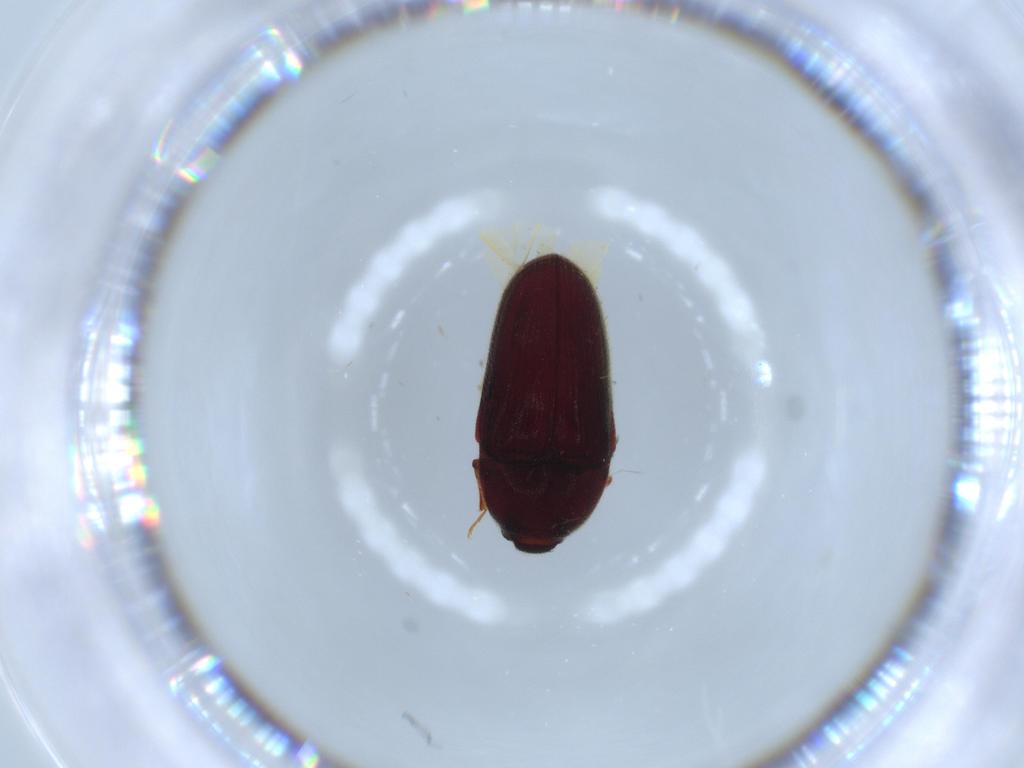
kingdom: Animalia
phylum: Arthropoda
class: Insecta
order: Coleoptera
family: Throscidae
